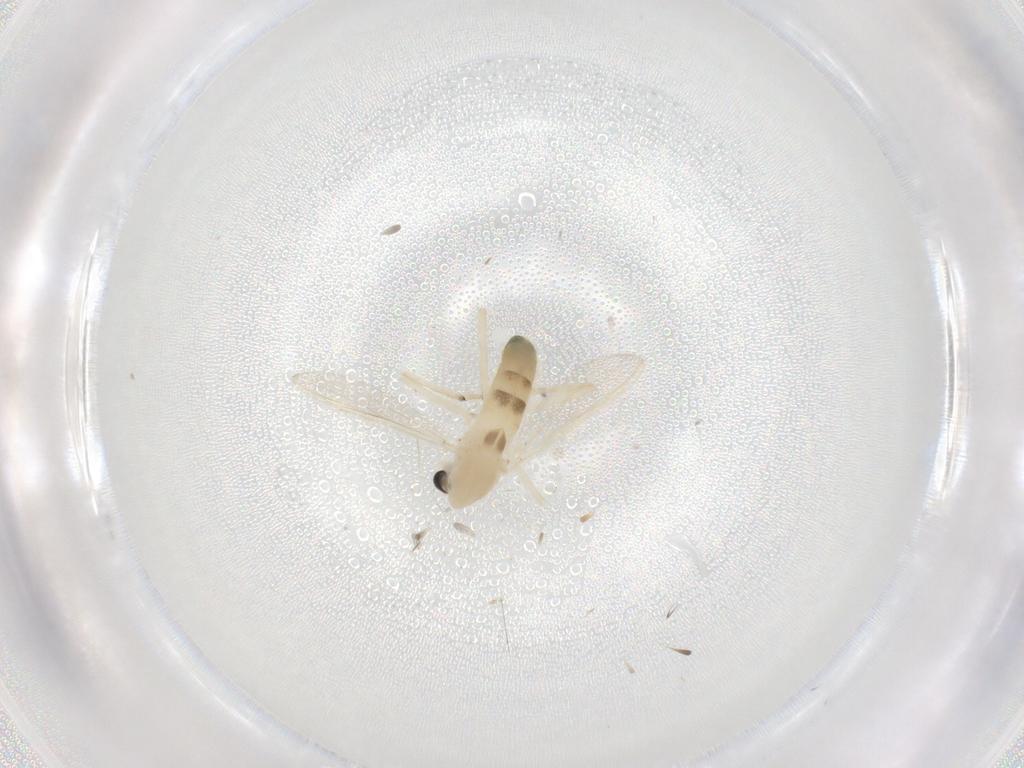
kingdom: Animalia
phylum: Arthropoda
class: Insecta
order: Diptera
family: Chironomidae
